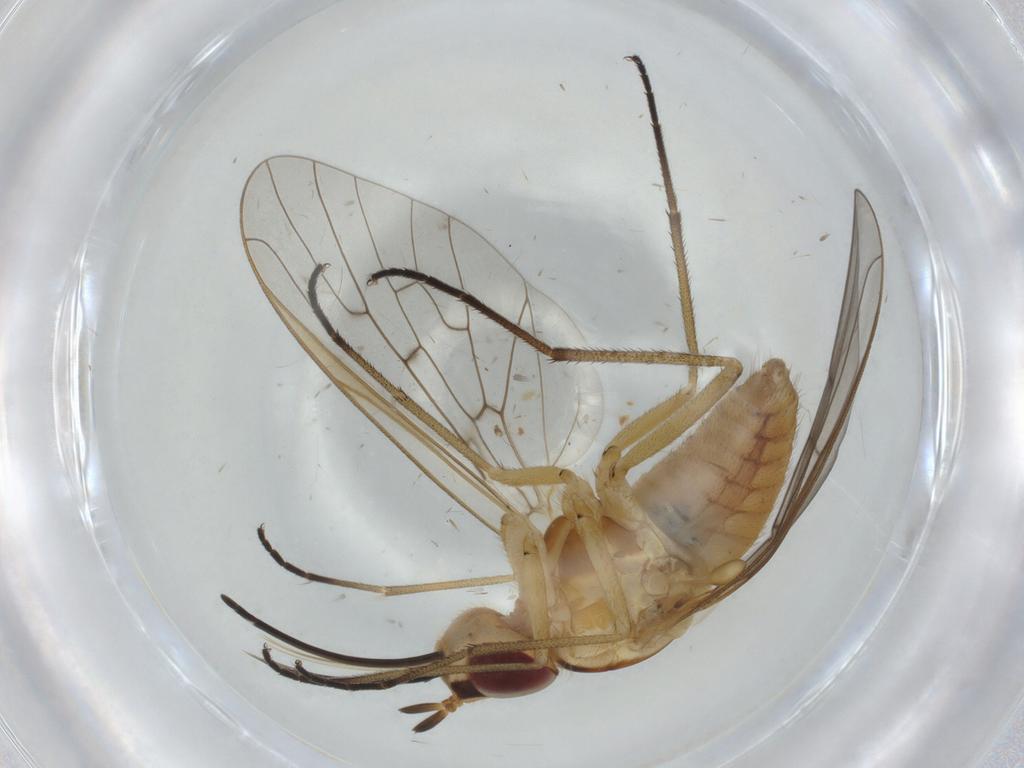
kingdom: Animalia
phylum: Arthropoda
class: Insecta
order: Diptera
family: Bombyliidae
